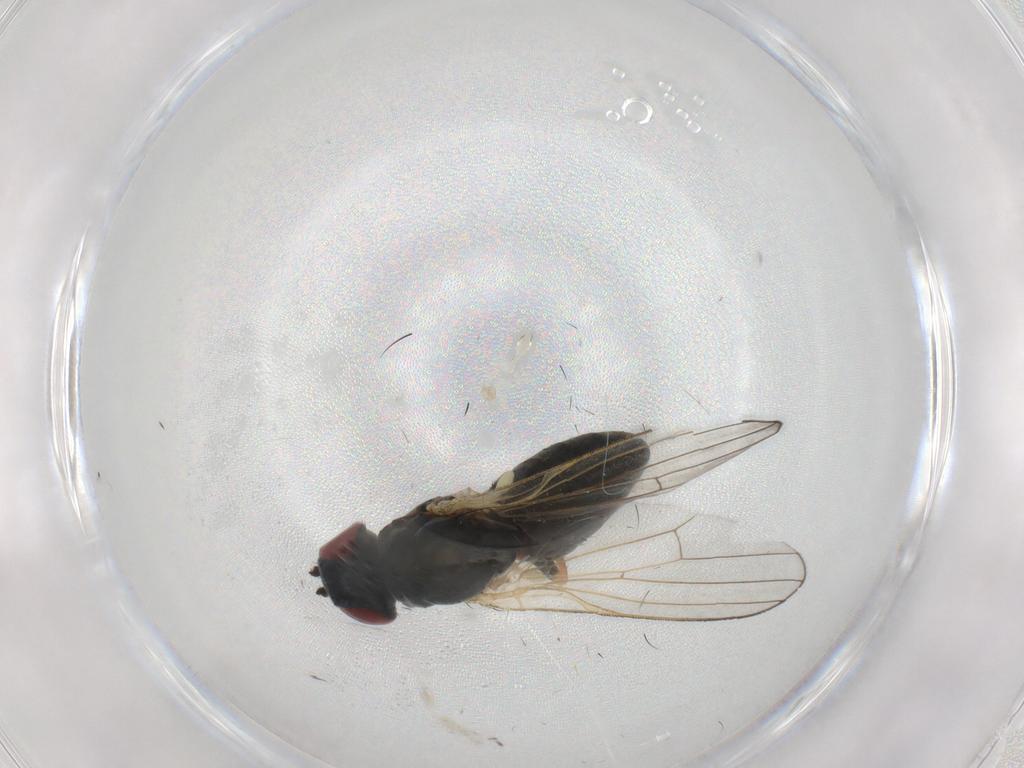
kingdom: Animalia
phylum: Arthropoda
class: Insecta
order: Diptera
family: Chamaemyiidae
